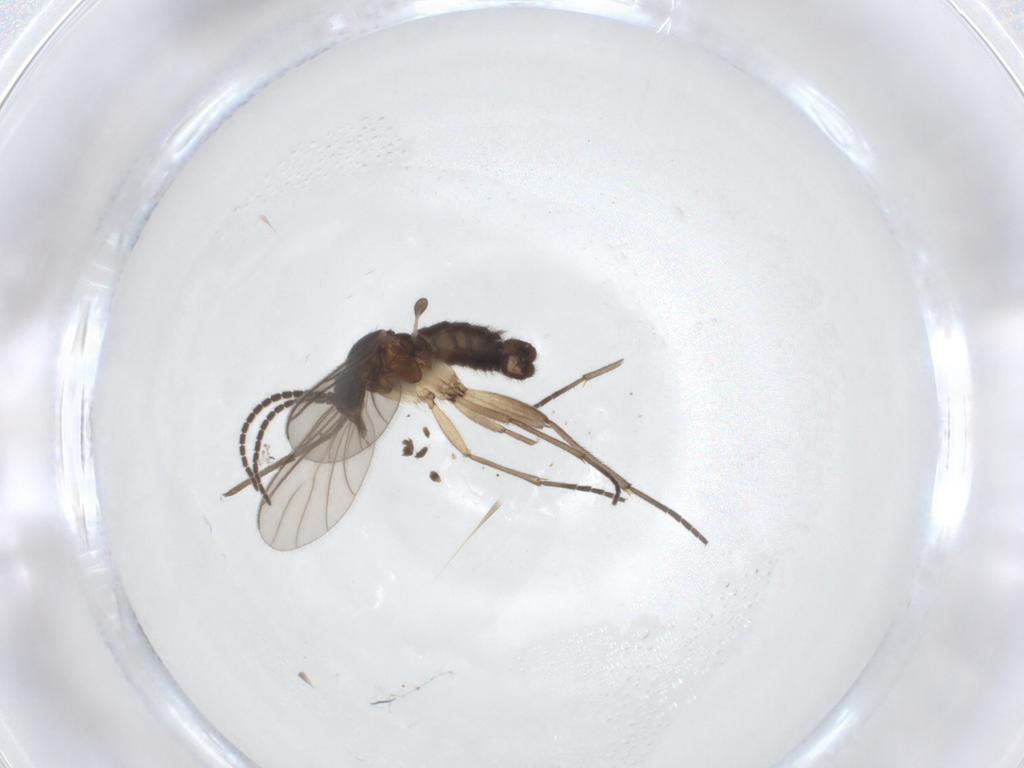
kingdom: Animalia
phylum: Arthropoda
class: Insecta
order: Diptera
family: Sciaridae
